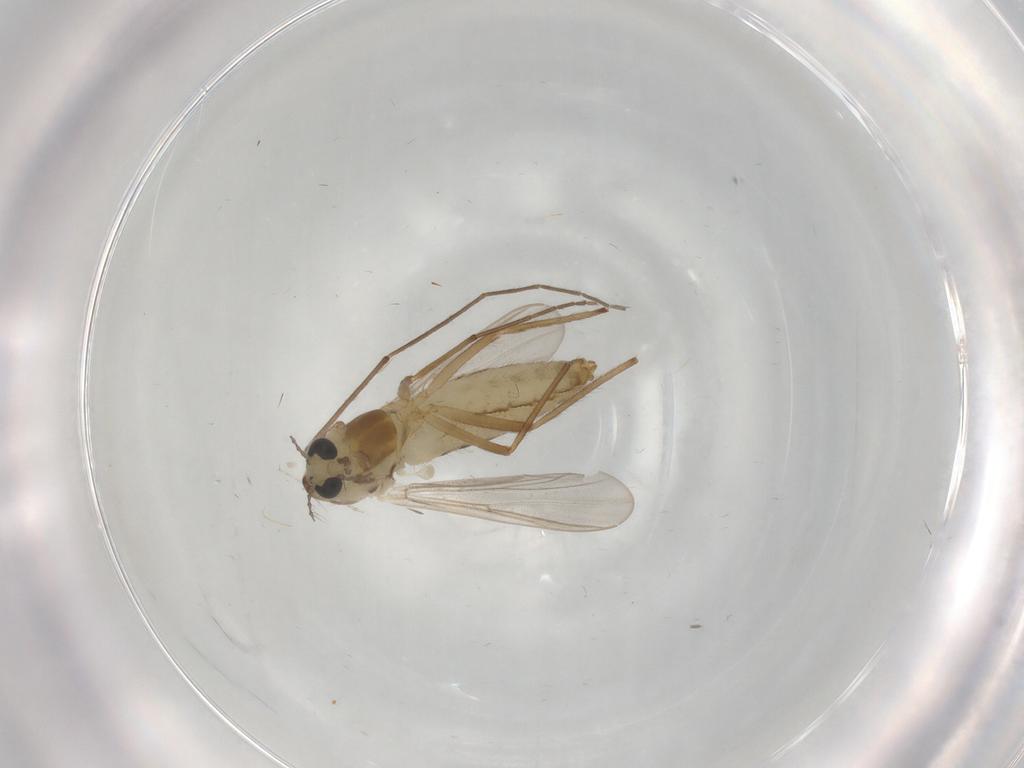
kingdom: Animalia
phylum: Arthropoda
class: Insecta
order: Diptera
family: Chironomidae
